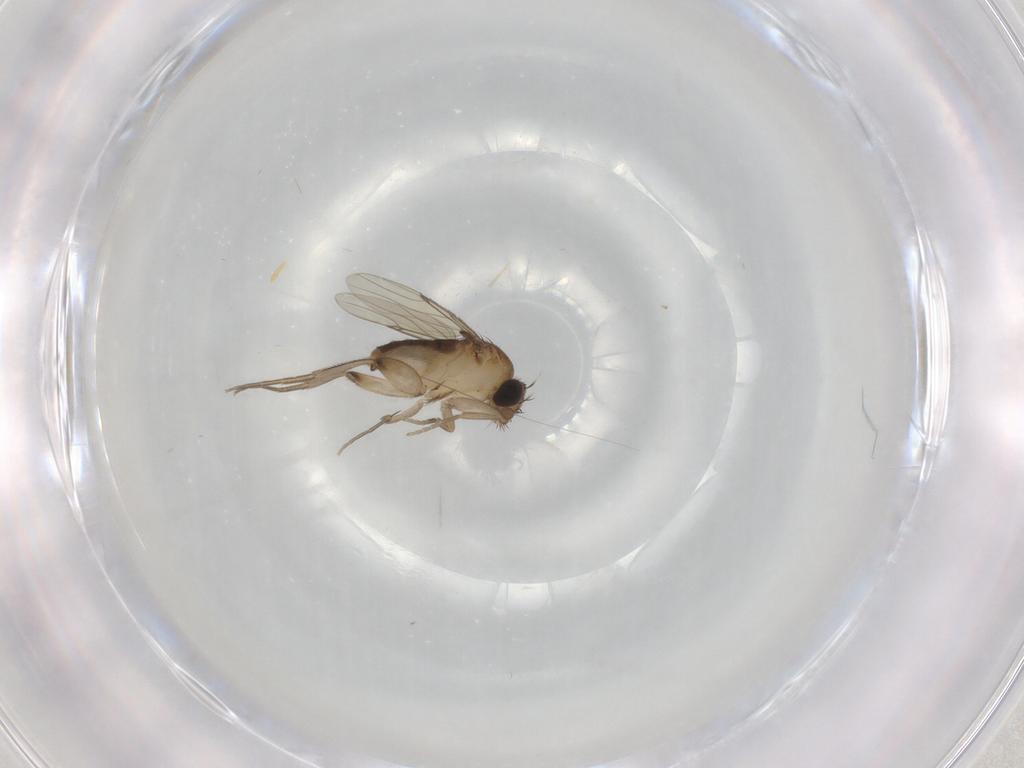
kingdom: Animalia
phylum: Arthropoda
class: Insecta
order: Diptera
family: Phoridae
